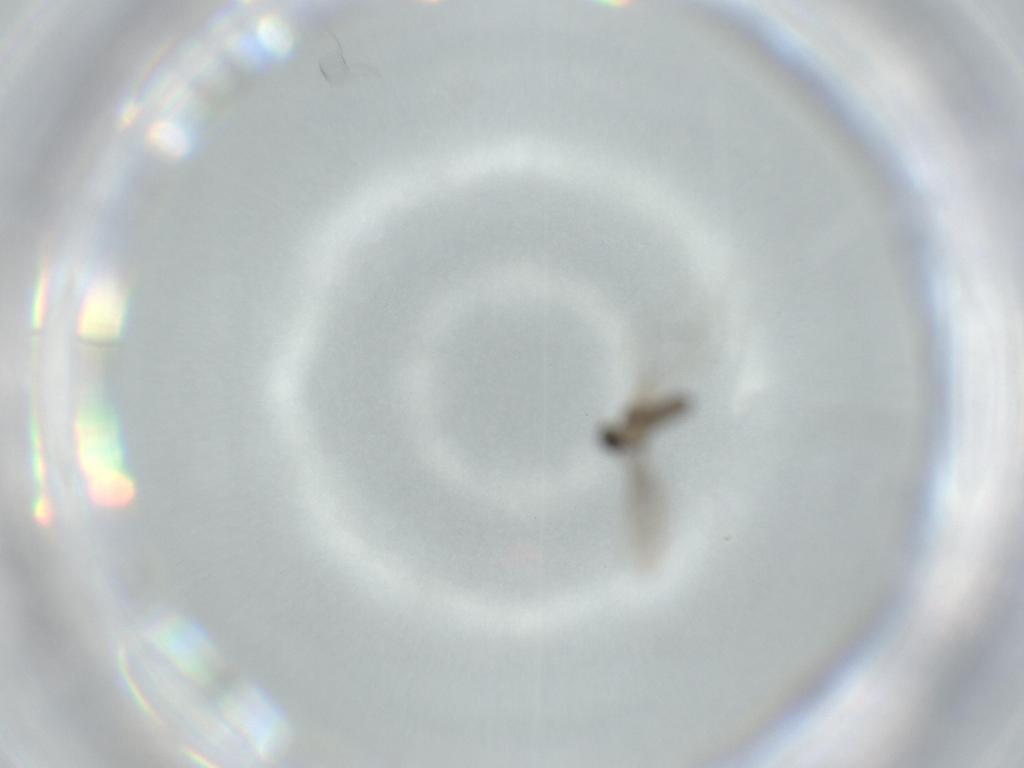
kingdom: Animalia
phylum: Arthropoda
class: Insecta
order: Diptera
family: Cecidomyiidae
